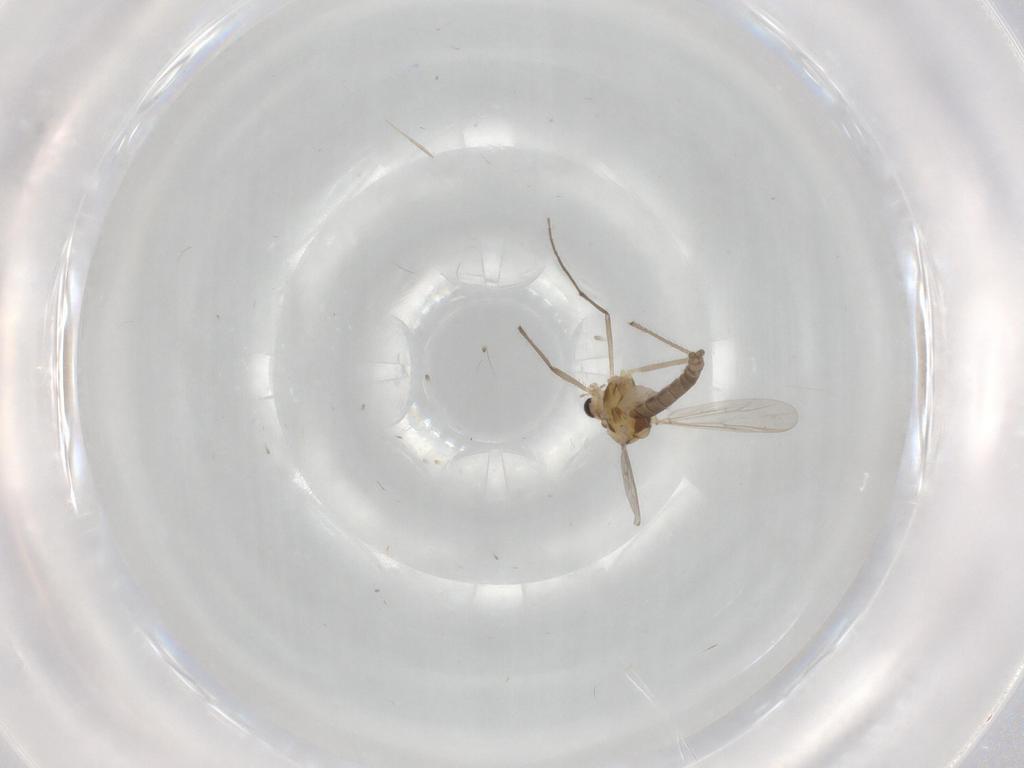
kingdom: Animalia
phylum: Arthropoda
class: Insecta
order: Diptera
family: Chironomidae
